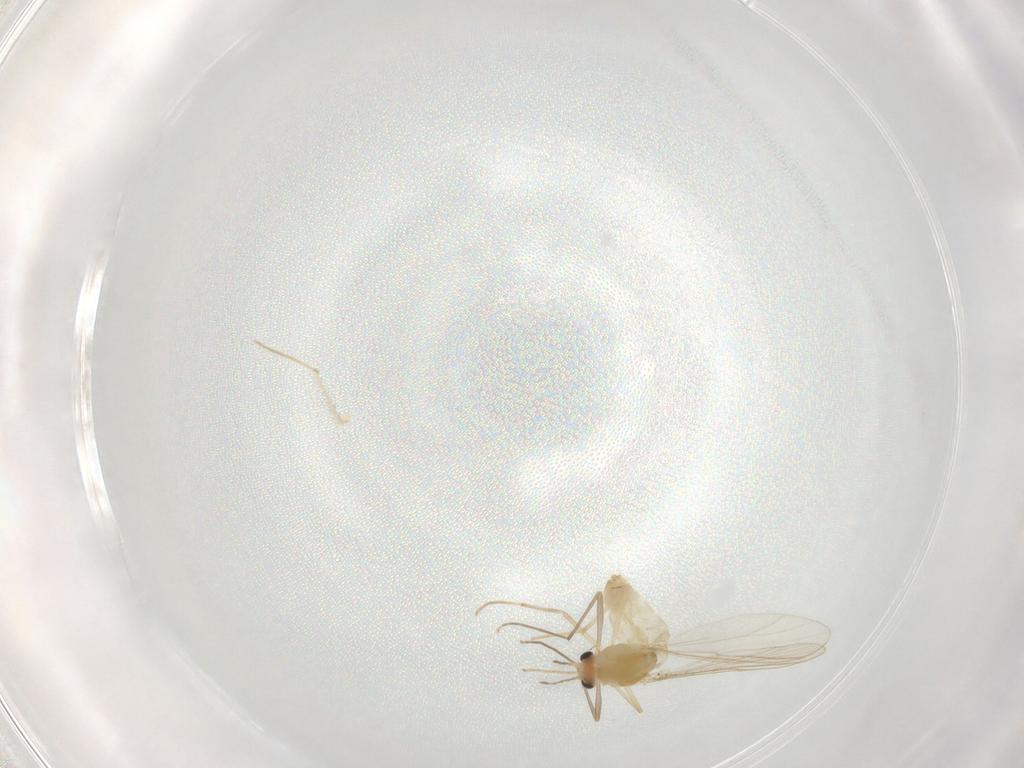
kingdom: Animalia
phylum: Arthropoda
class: Insecta
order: Diptera
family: Chironomidae
